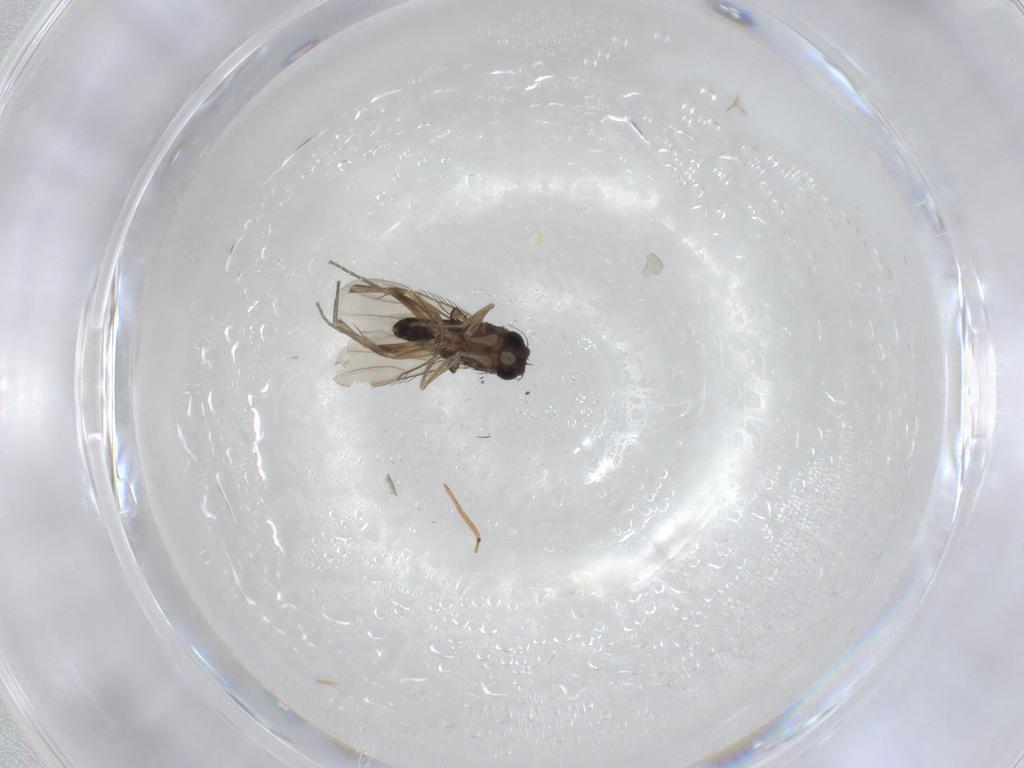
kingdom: Animalia
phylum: Arthropoda
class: Insecta
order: Diptera
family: Phoridae
